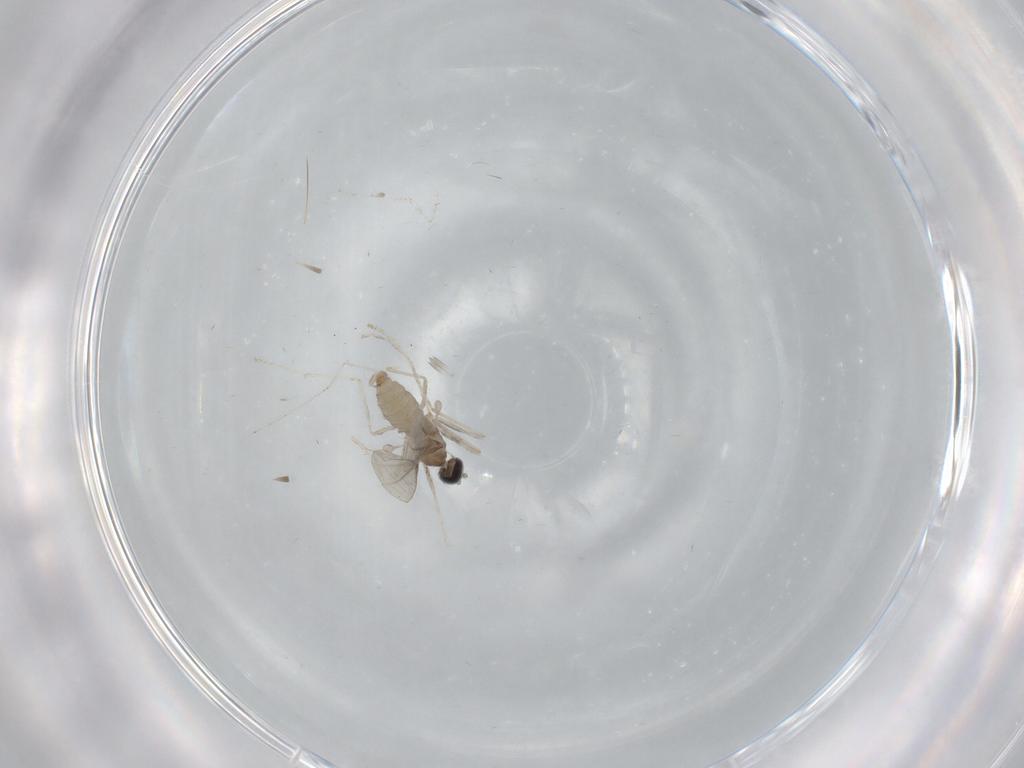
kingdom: Animalia
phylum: Arthropoda
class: Insecta
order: Diptera
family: Cecidomyiidae
